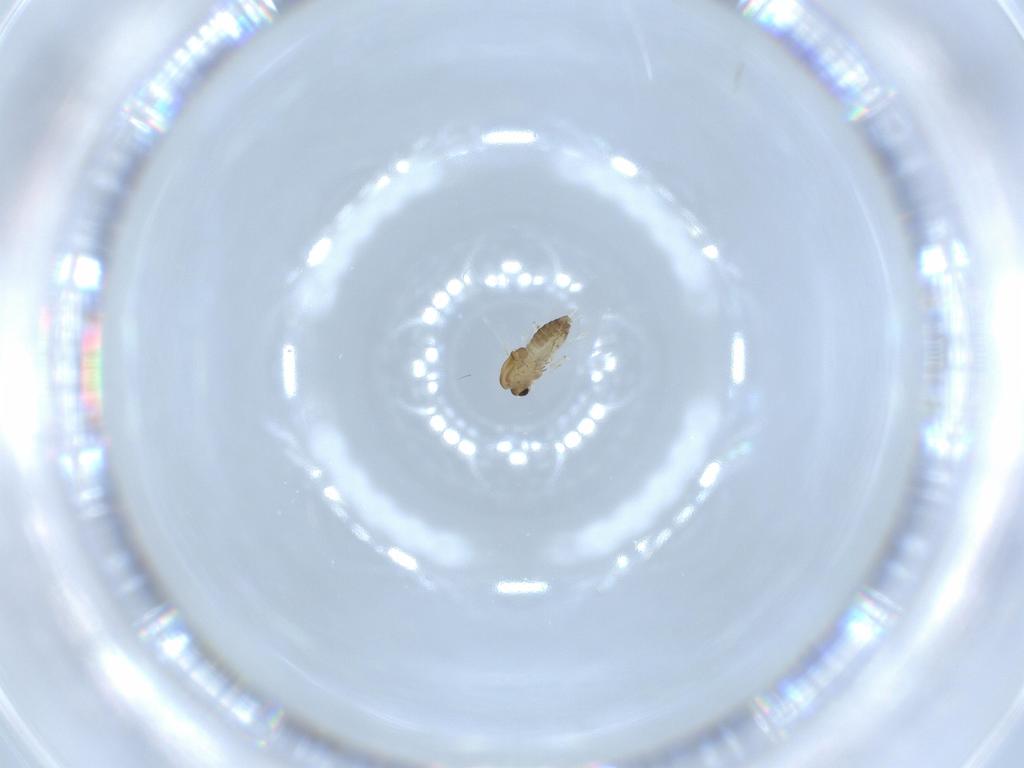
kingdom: Animalia
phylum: Arthropoda
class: Insecta
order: Diptera
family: Chironomidae
